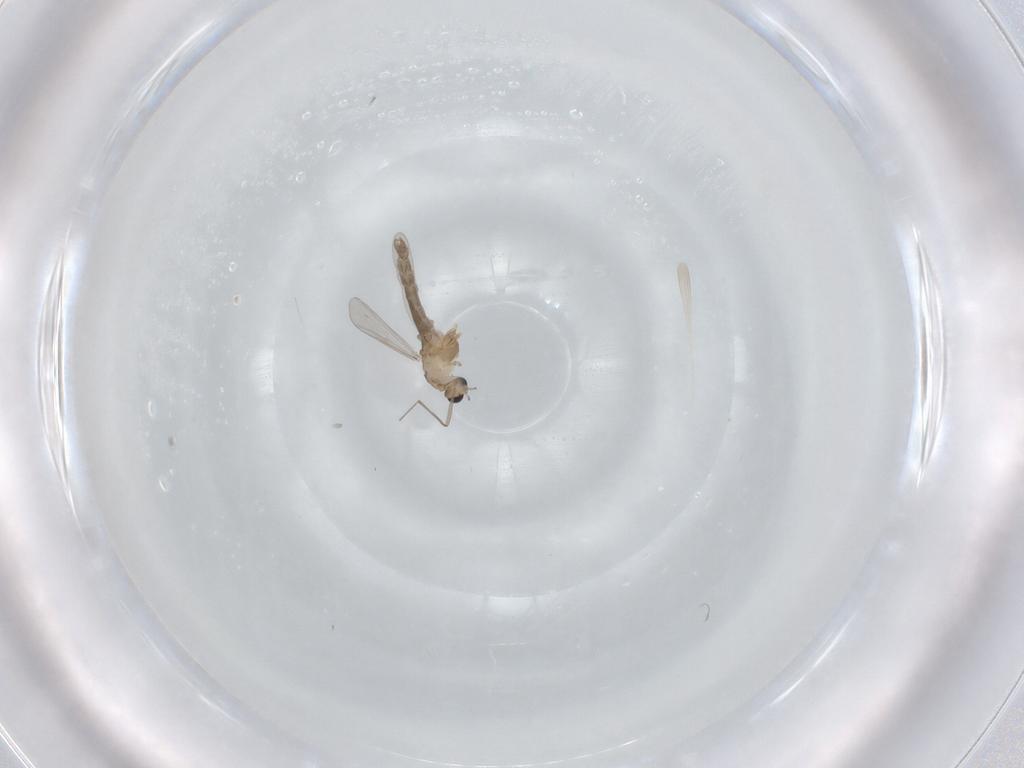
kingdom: Animalia
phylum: Arthropoda
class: Insecta
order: Diptera
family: Chironomidae
